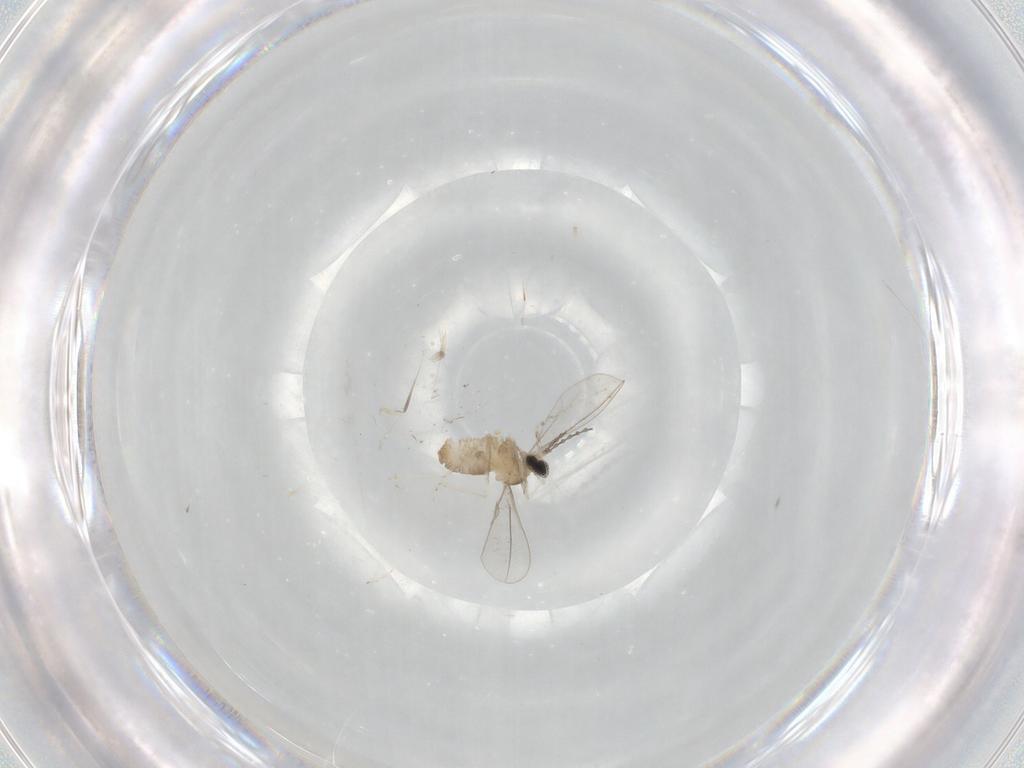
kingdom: Animalia
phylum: Arthropoda
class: Insecta
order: Diptera
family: Cecidomyiidae
